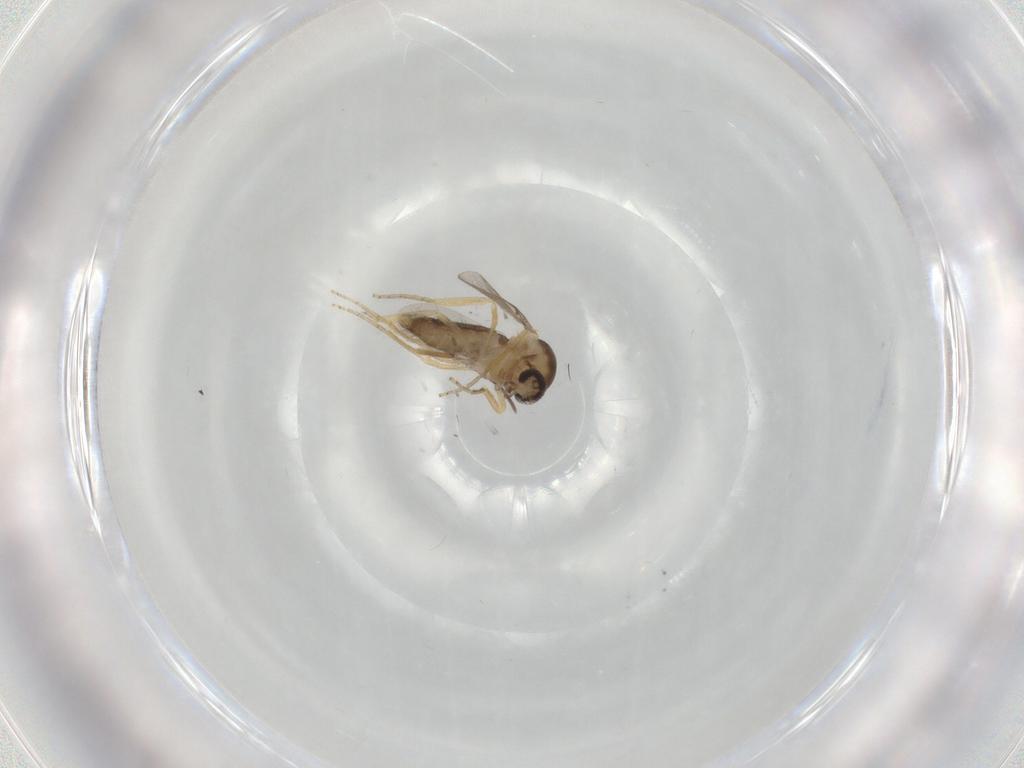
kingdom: Animalia
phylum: Arthropoda
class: Insecta
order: Diptera
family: Ceratopogonidae
